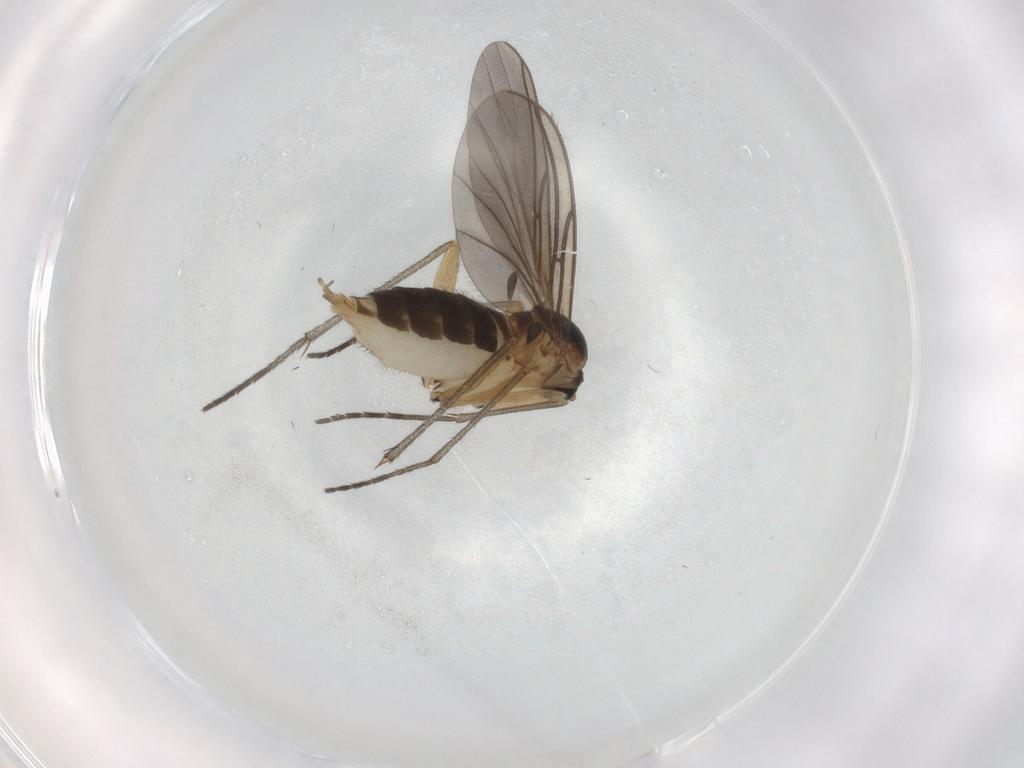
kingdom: Animalia
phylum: Arthropoda
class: Insecta
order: Diptera
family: Sciaridae
